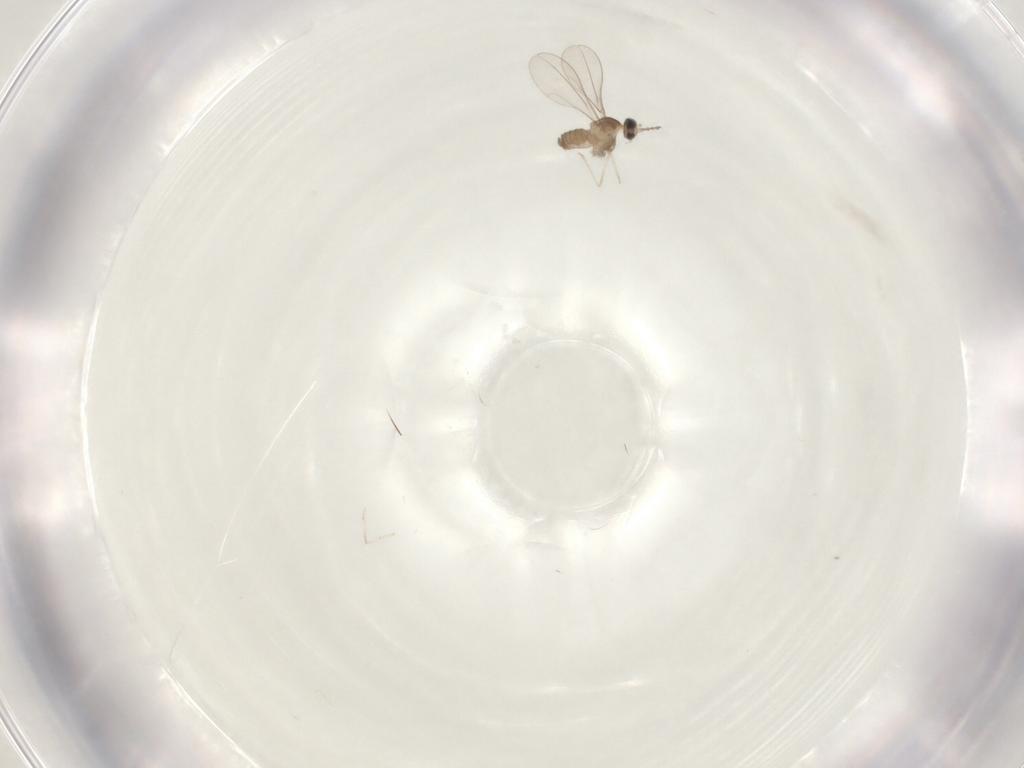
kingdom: Animalia
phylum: Arthropoda
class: Insecta
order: Diptera
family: Cecidomyiidae
